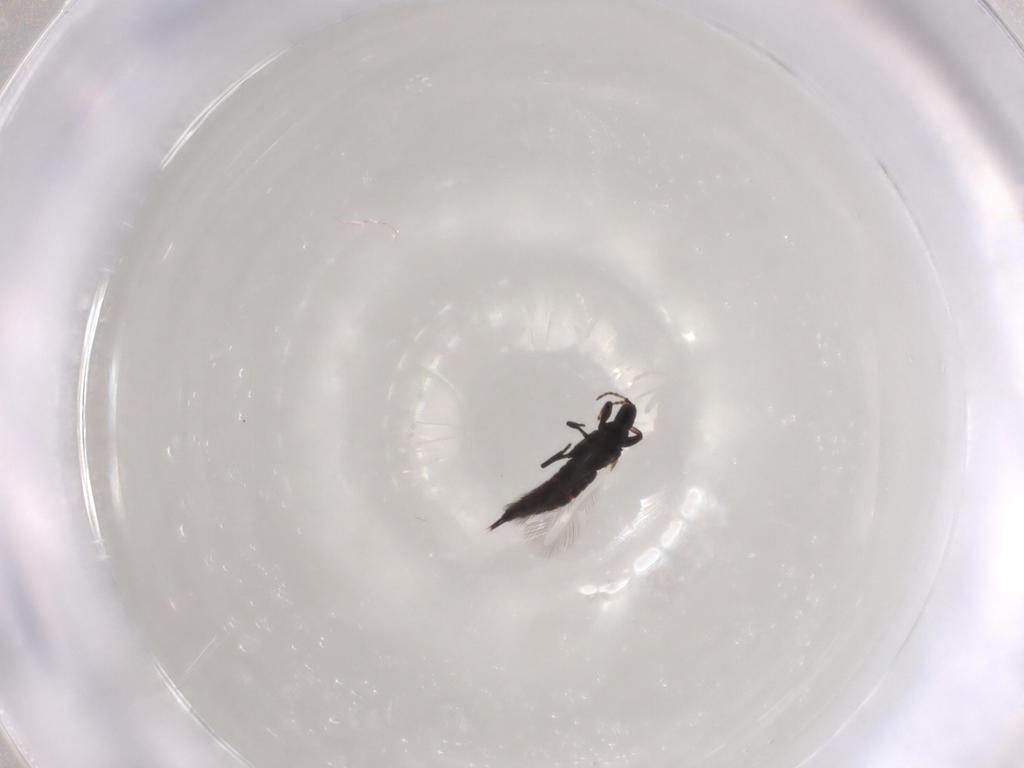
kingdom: Animalia
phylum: Arthropoda
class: Insecta
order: Thysanoptera
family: Phlaeothripidae
